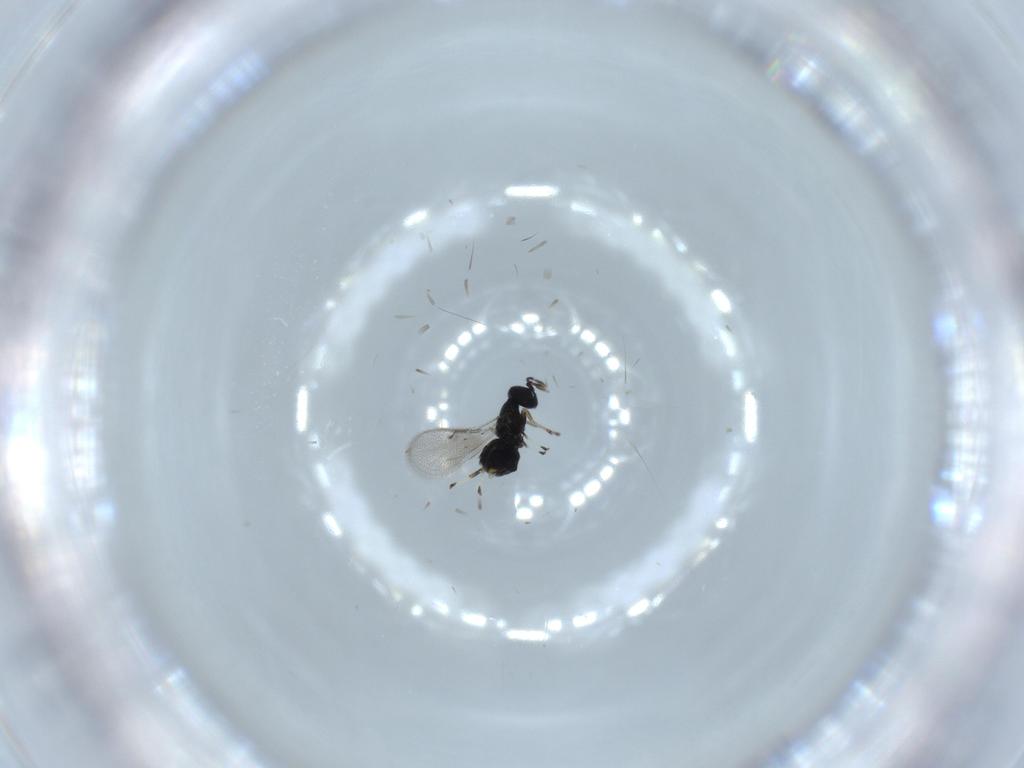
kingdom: Animalia
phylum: Arthropoda
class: Insecta
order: Hymenoptera
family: Eulophidae
